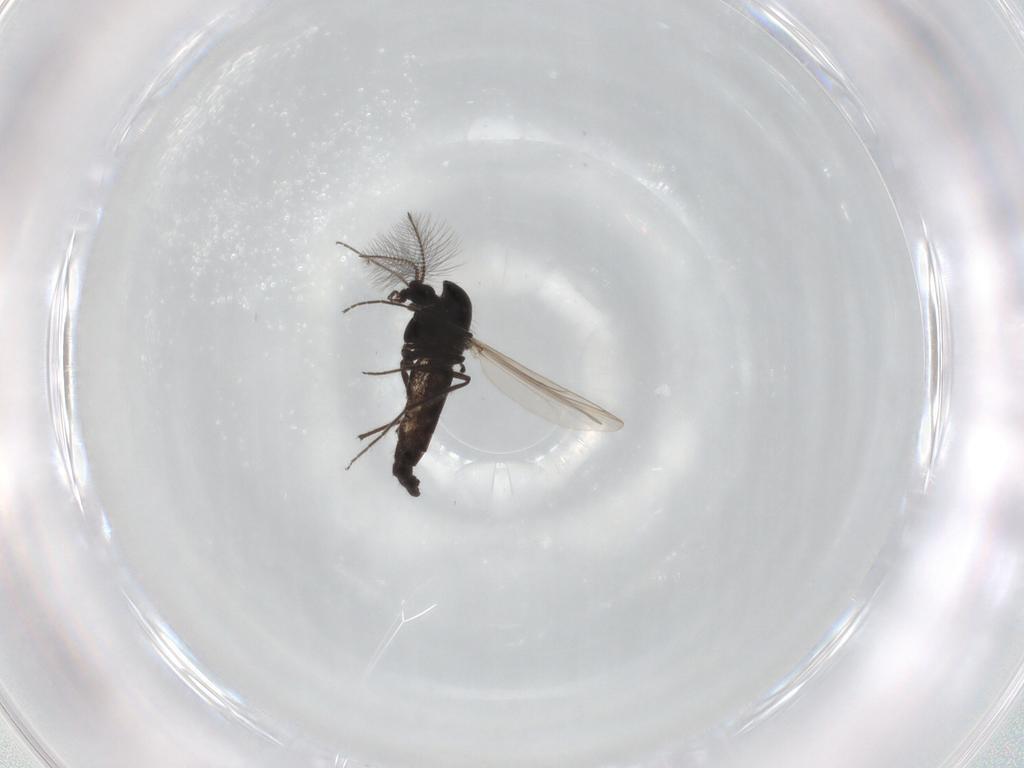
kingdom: Animalia
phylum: Arthropoda
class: Insecta
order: Diptera
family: Chironomidae
